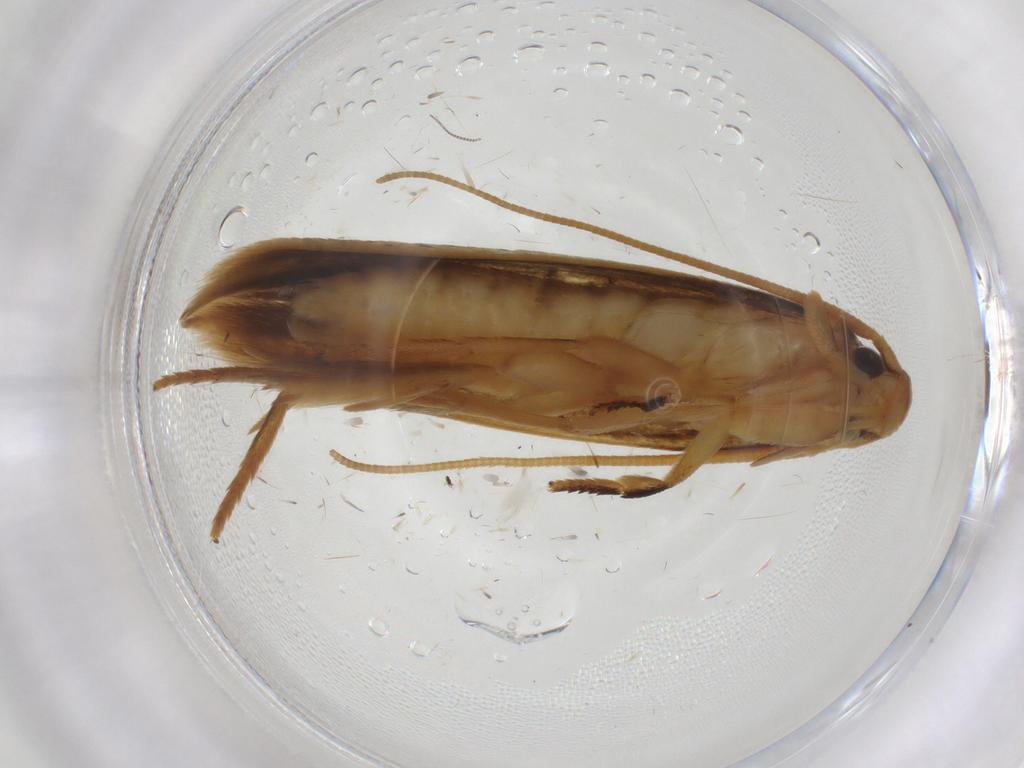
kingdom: Animalia
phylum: Arthropoda
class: Insecta
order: Lepidoptera
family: Tineidae
